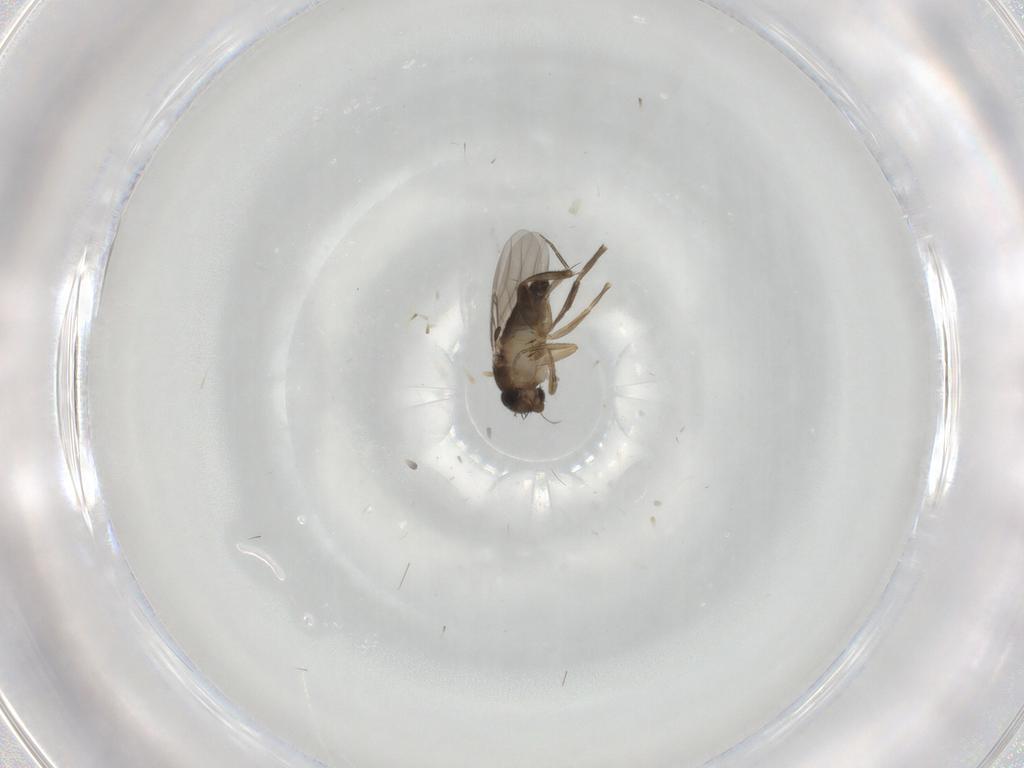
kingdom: Animalia
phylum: Arthropoda
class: Insecta
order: Diptera
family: Phoridae
